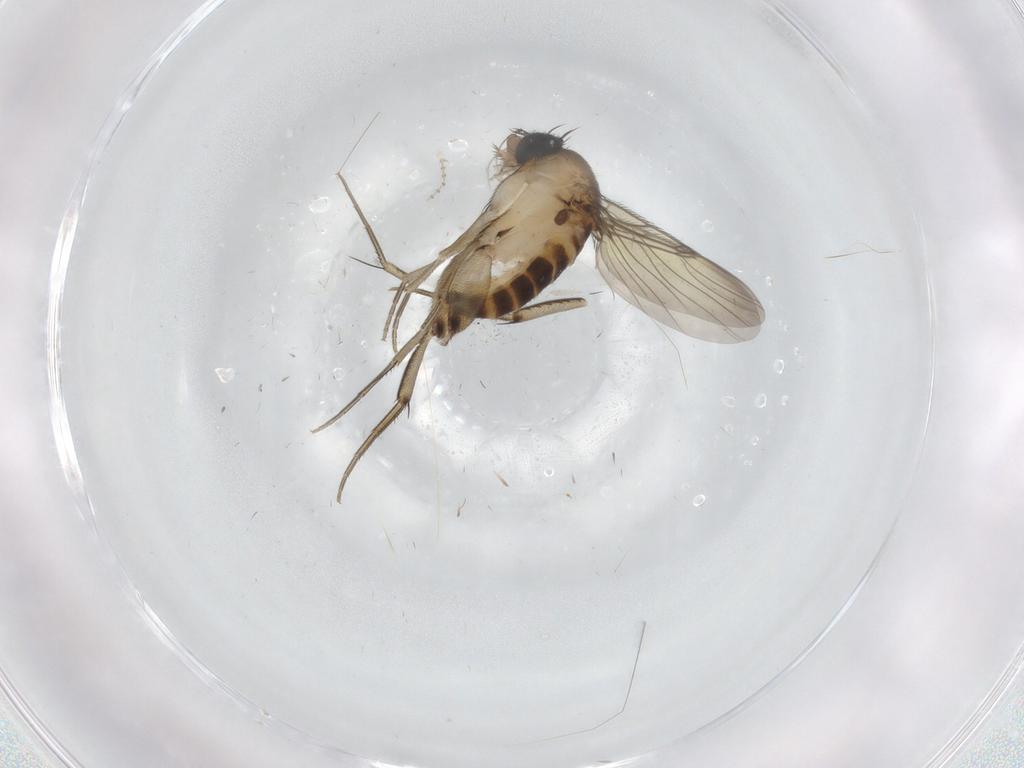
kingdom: Animalia
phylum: Arthropoda
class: Insecta
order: Diptera
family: Phoridae
